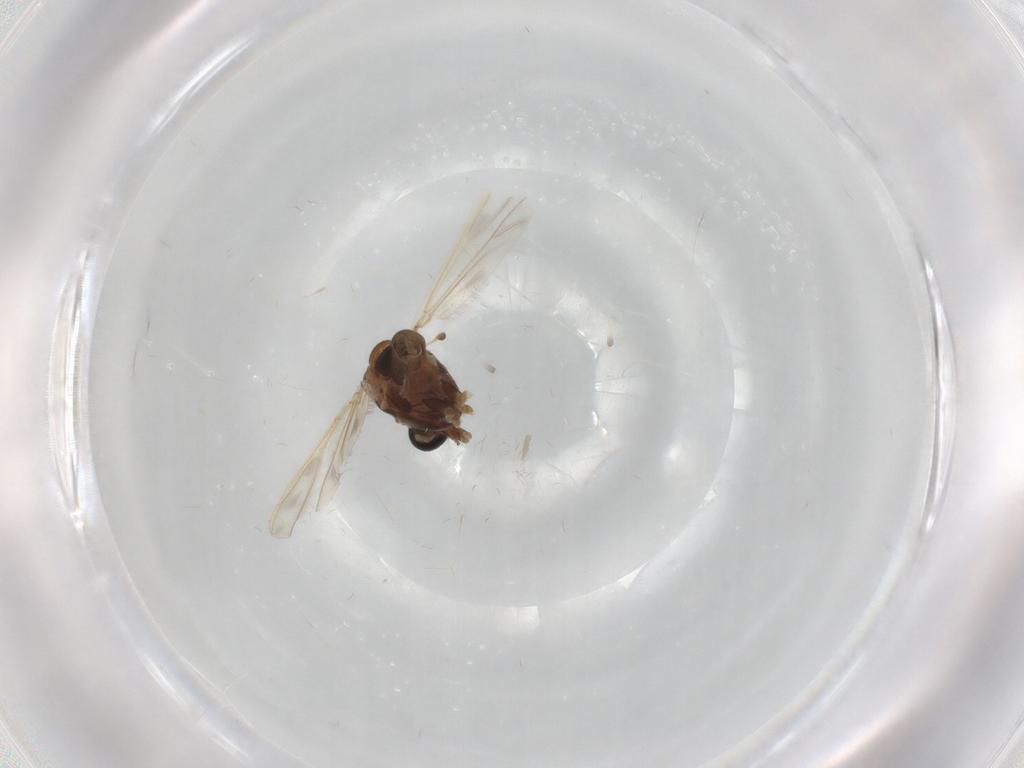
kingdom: Animalia
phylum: Arthropoda
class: Insecta
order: Diptera
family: Chironomidae
